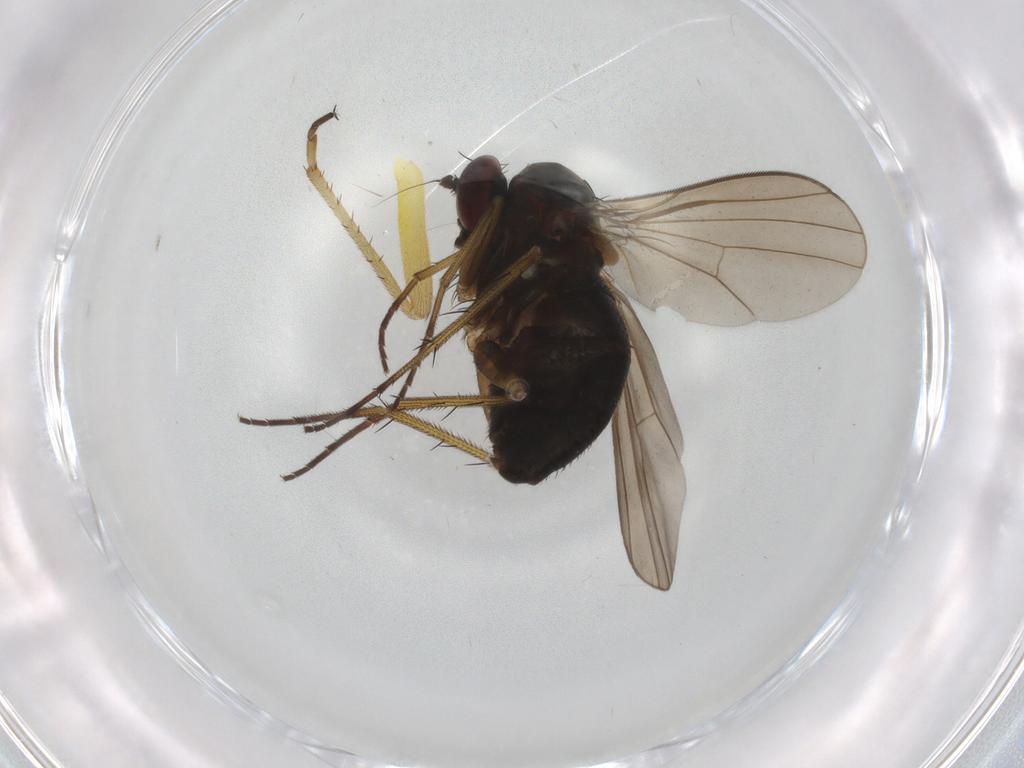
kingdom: Animalia
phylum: Arthropoda
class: Insecta
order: Diptera
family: Dolichopodidae
